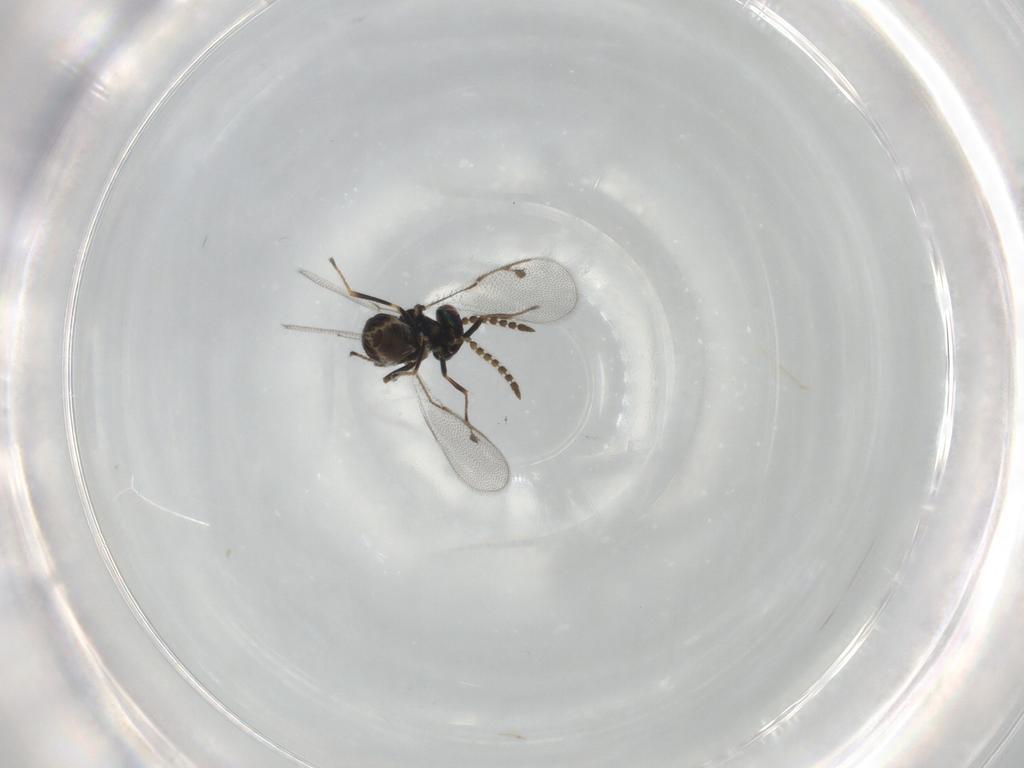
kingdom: Animalia
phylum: Arthropoda
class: Insecta
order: Hymenoptera
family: Pirenidae
